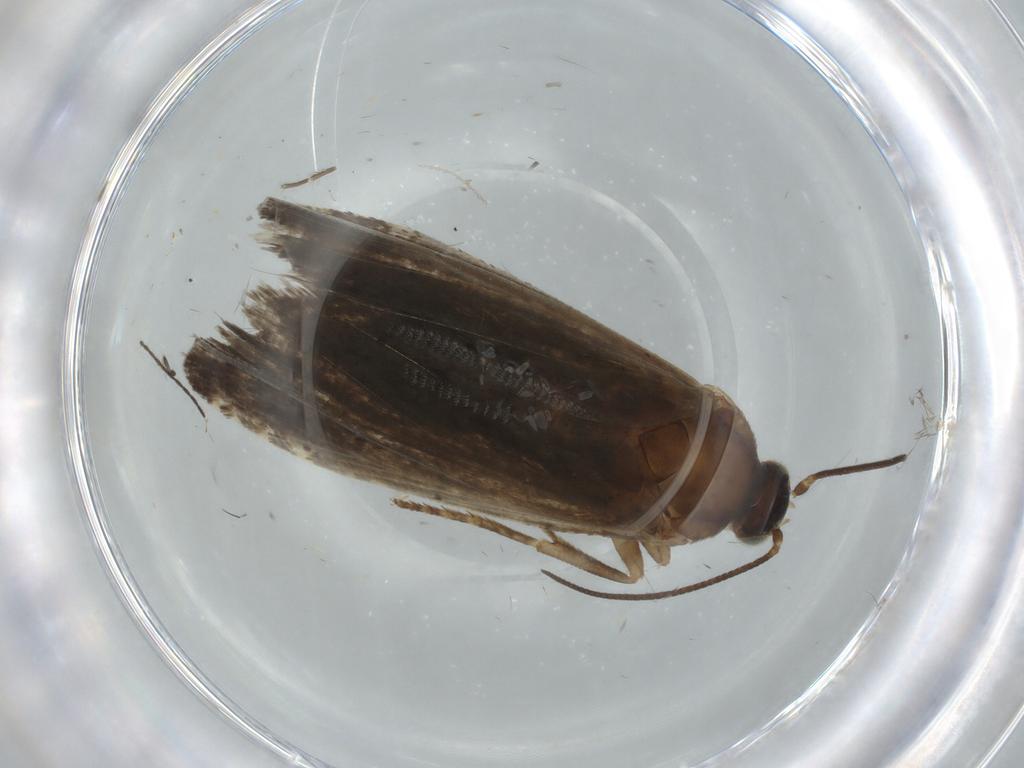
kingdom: Animalia
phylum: Arthropoda
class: Insecta
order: Lepidoptera
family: Tortricidae
